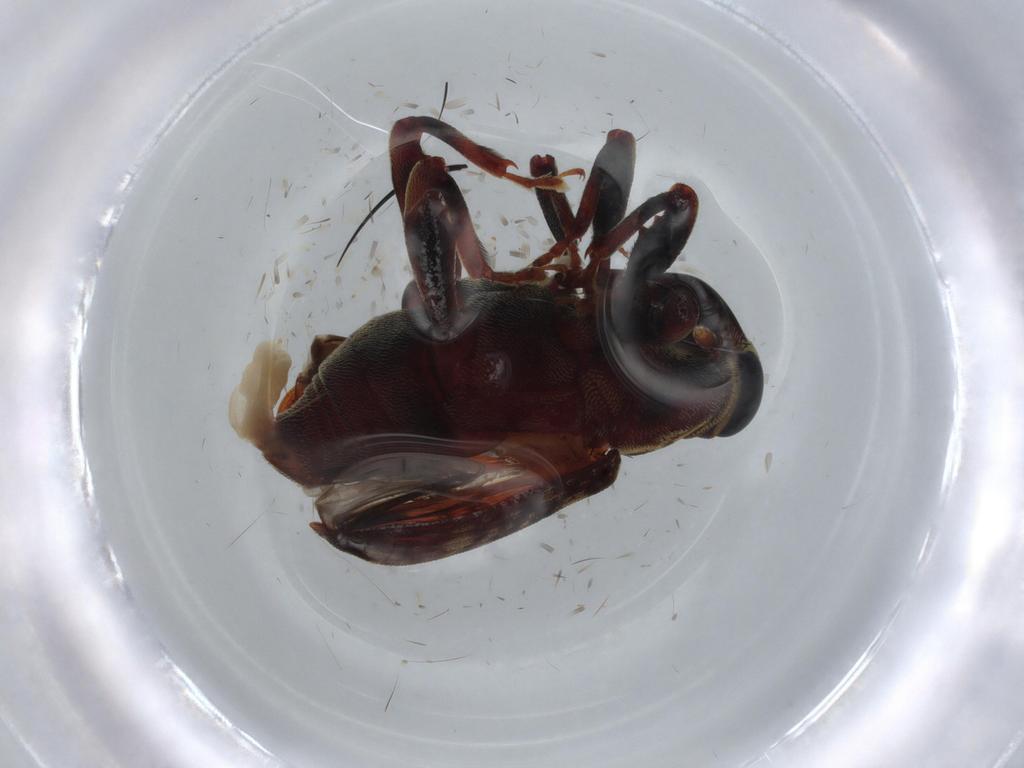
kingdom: Animalia
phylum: Arthropoda
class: Insecta
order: Coleoptera
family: Curculionidae
